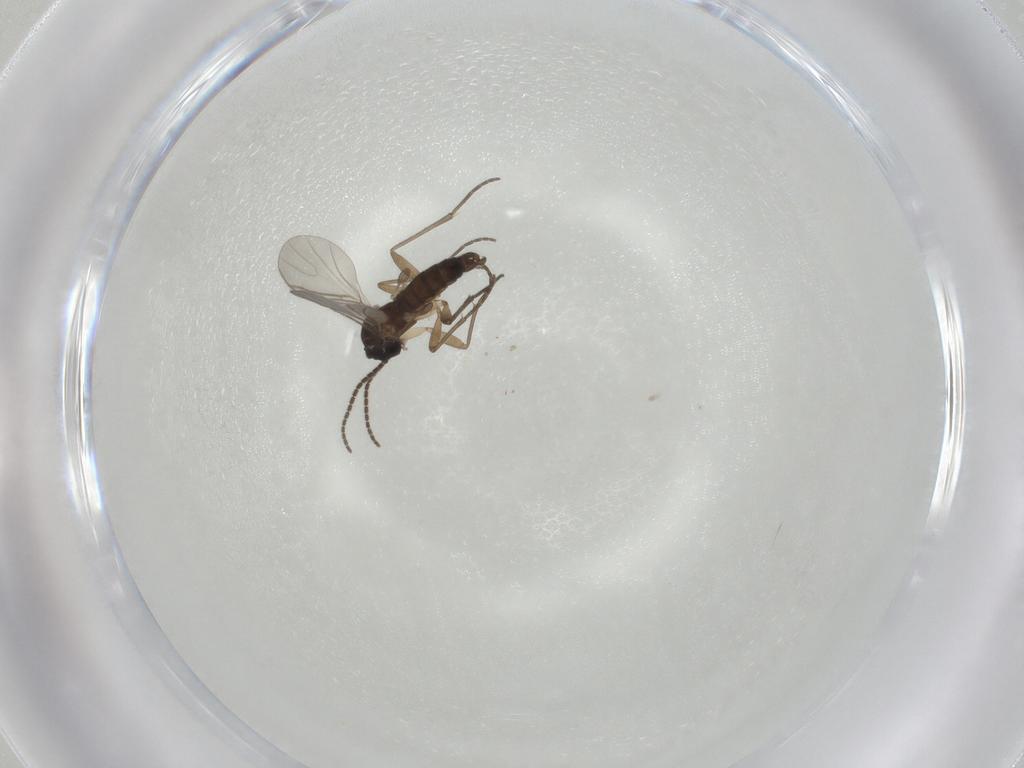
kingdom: Animalia
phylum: Arthropoda
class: Insecta
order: Diptera
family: Sciaridae
